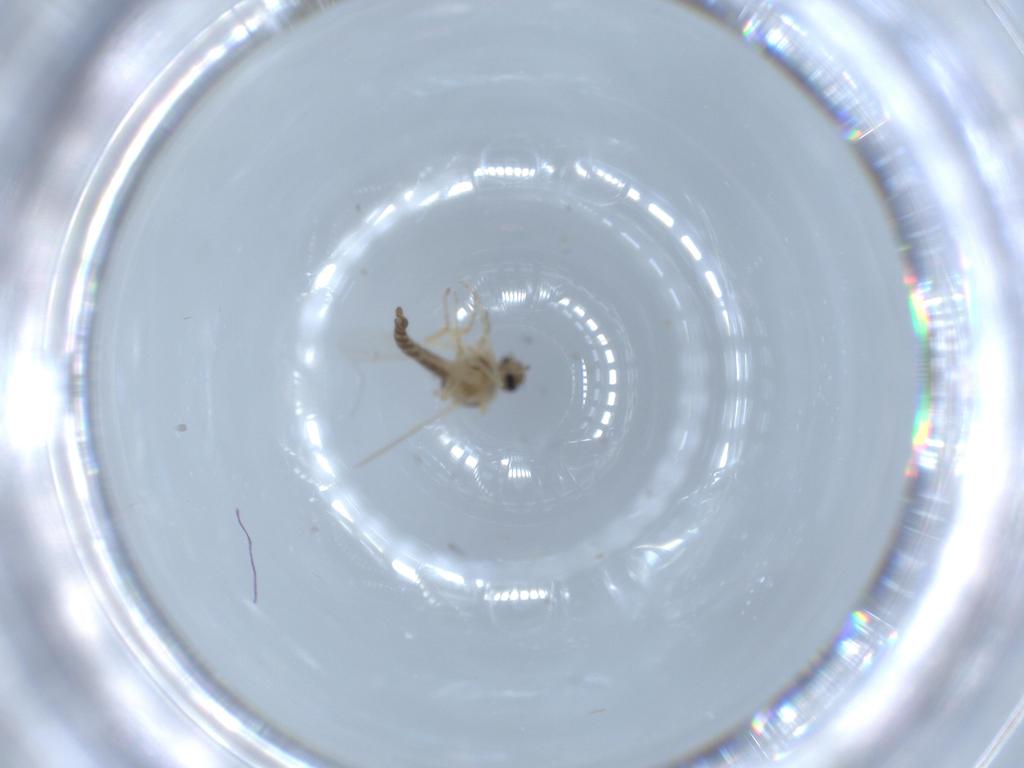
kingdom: Animalia
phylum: Arthropoda
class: Insecta
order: Diptera
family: Ceratopogonidae
